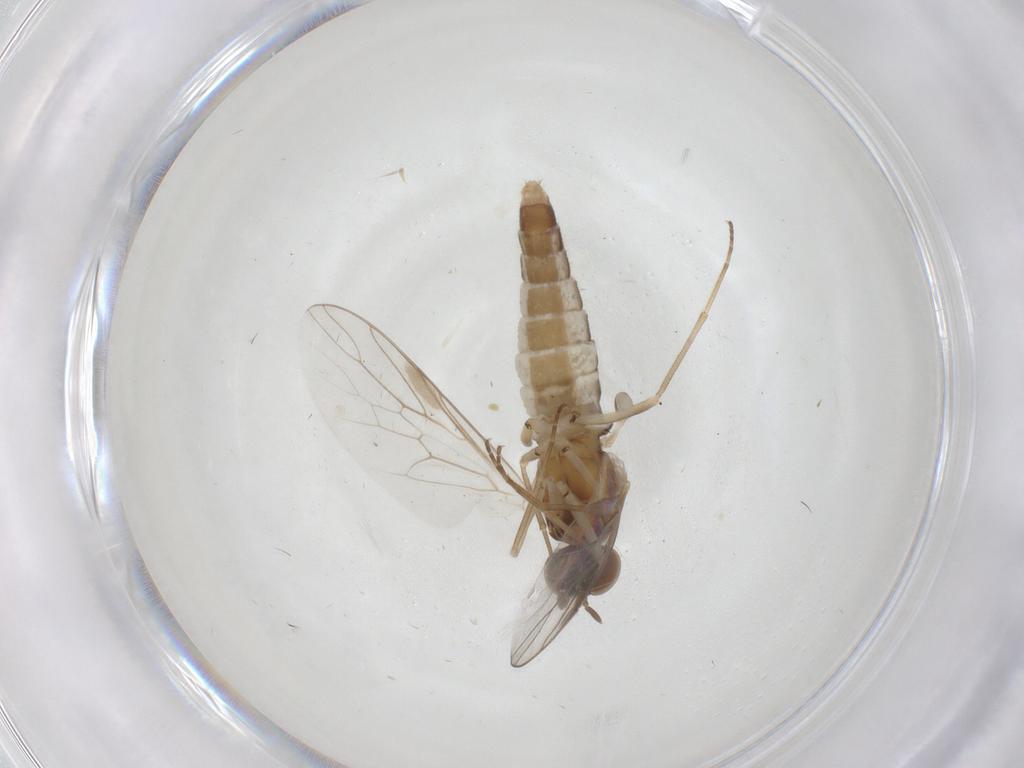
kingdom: Animalia
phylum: Arthropoda
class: Insecta
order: Diptera
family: Scenopinidae
